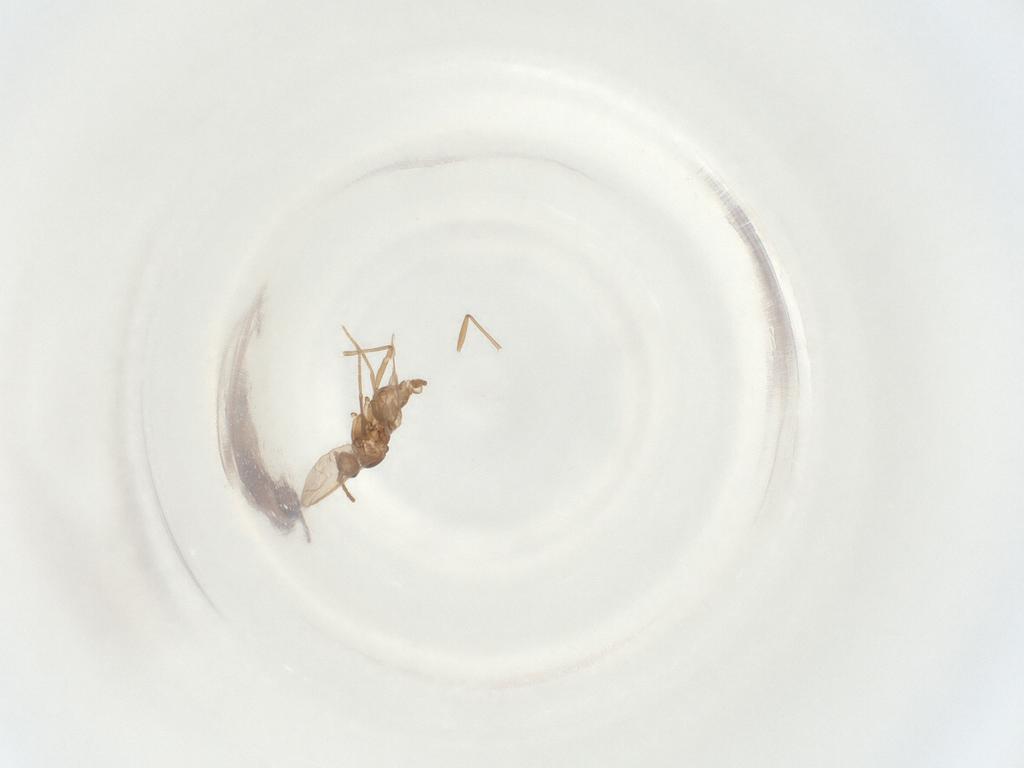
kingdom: Animalia
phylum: Arthropoda
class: Insecta
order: Diptera
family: Sciaridae
